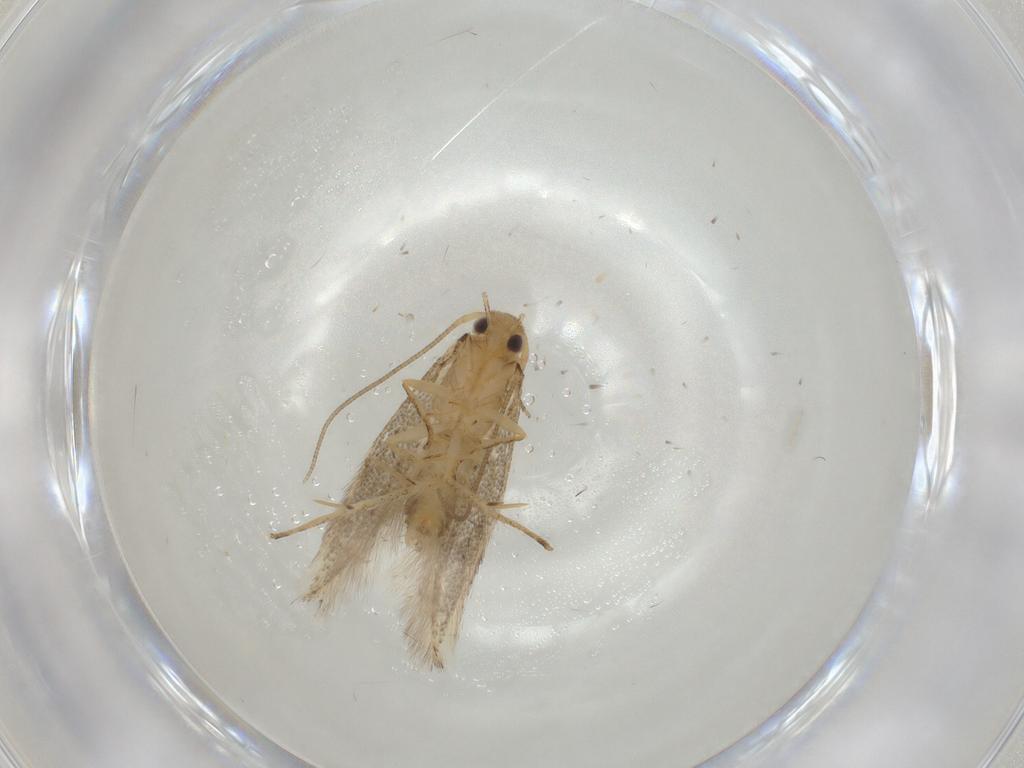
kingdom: Animalia
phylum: Arthropoda
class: Insecta
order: Lepidoptera
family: Depressariidae
